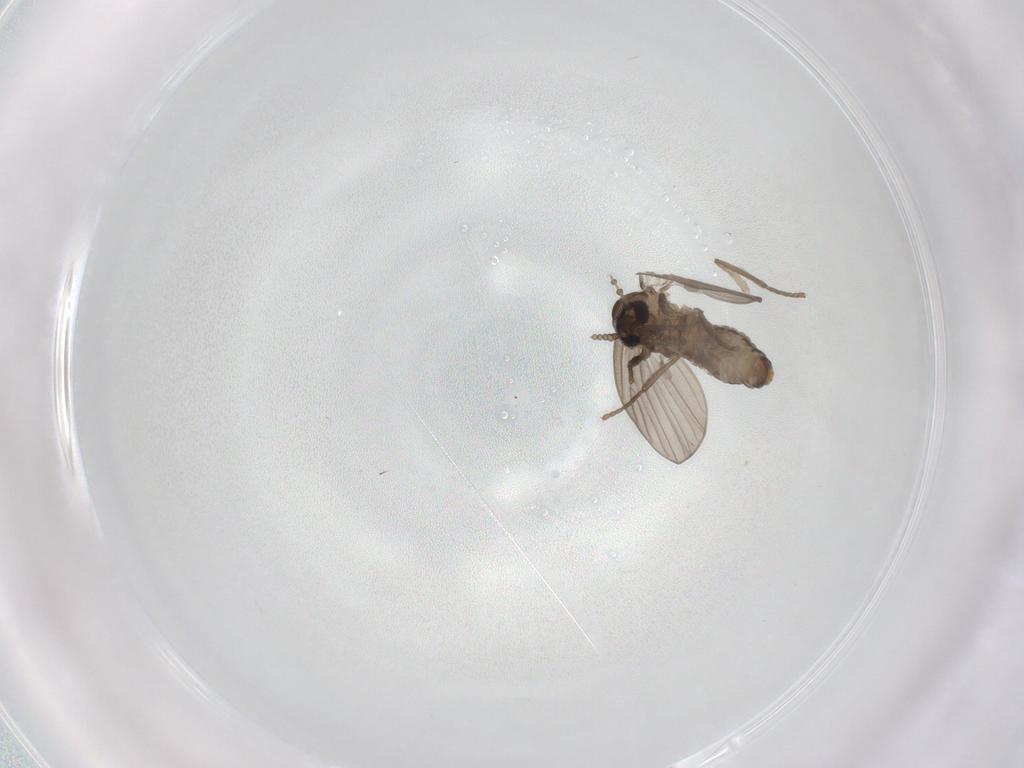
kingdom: Animalia
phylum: Arthropoda
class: Insecta
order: Diptera
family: Psychodidae
